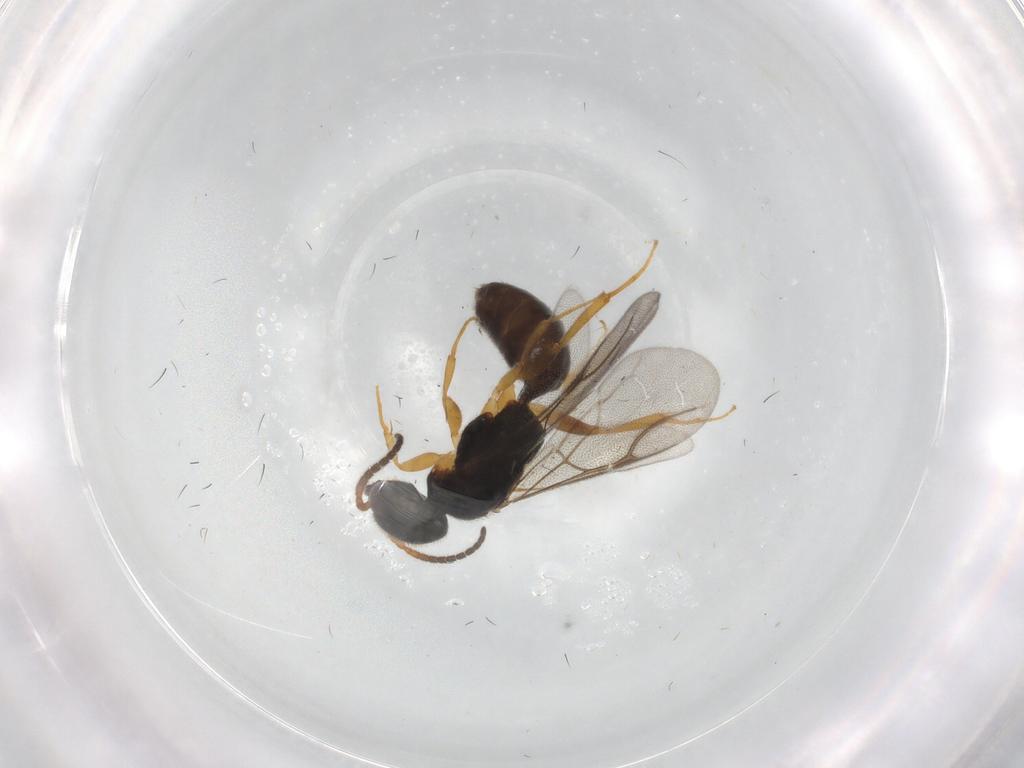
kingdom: Animalia
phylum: Arthropoda
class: Insecta
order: Hymenoptera
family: Bethylidae
